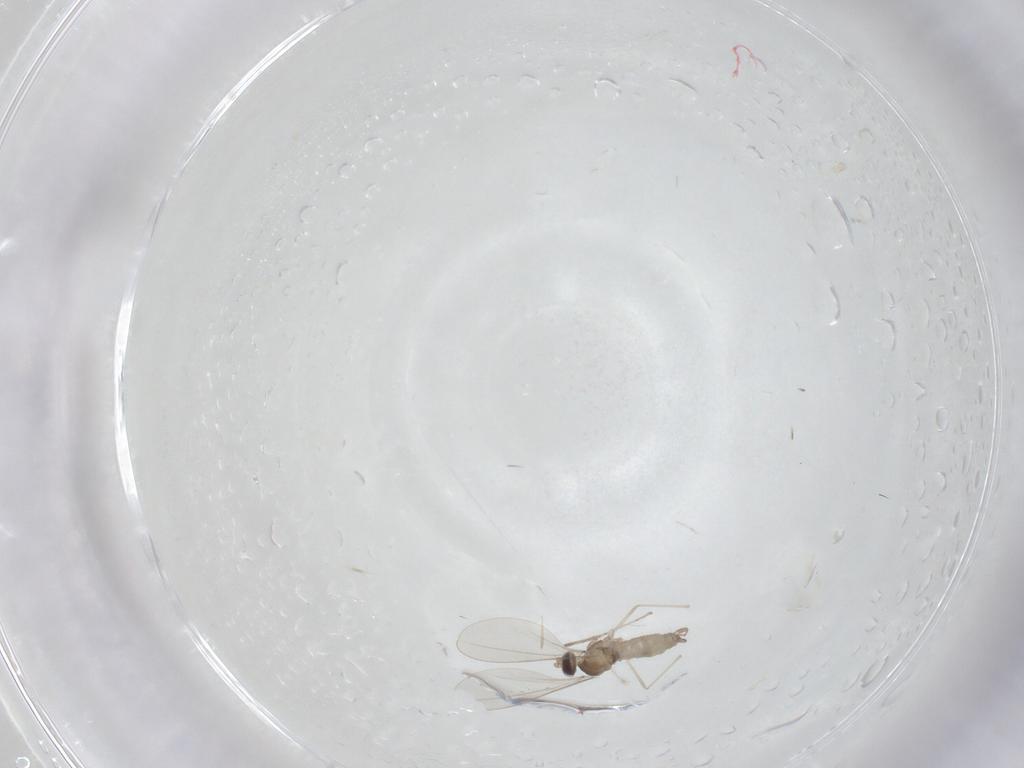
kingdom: Animalia
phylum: Arthropoda
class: Insecta
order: Diptera
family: Cecidomyiidae
